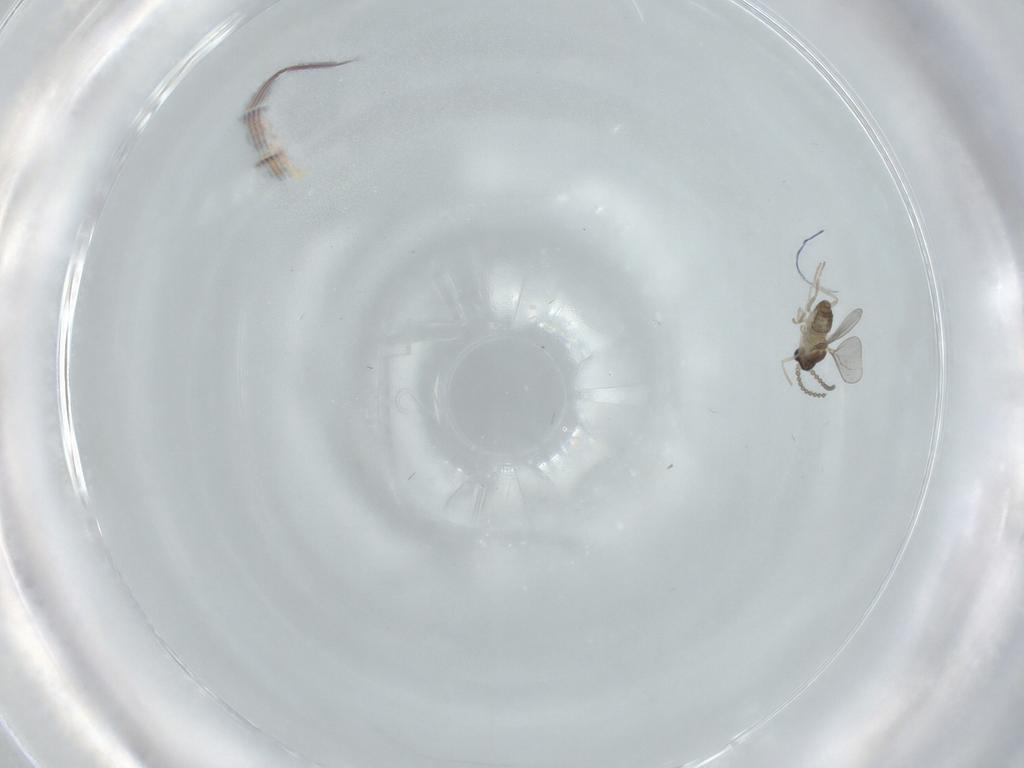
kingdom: Animalia
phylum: Arthropoda
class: Insecta
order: Diptera
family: Cecidomyiidae
